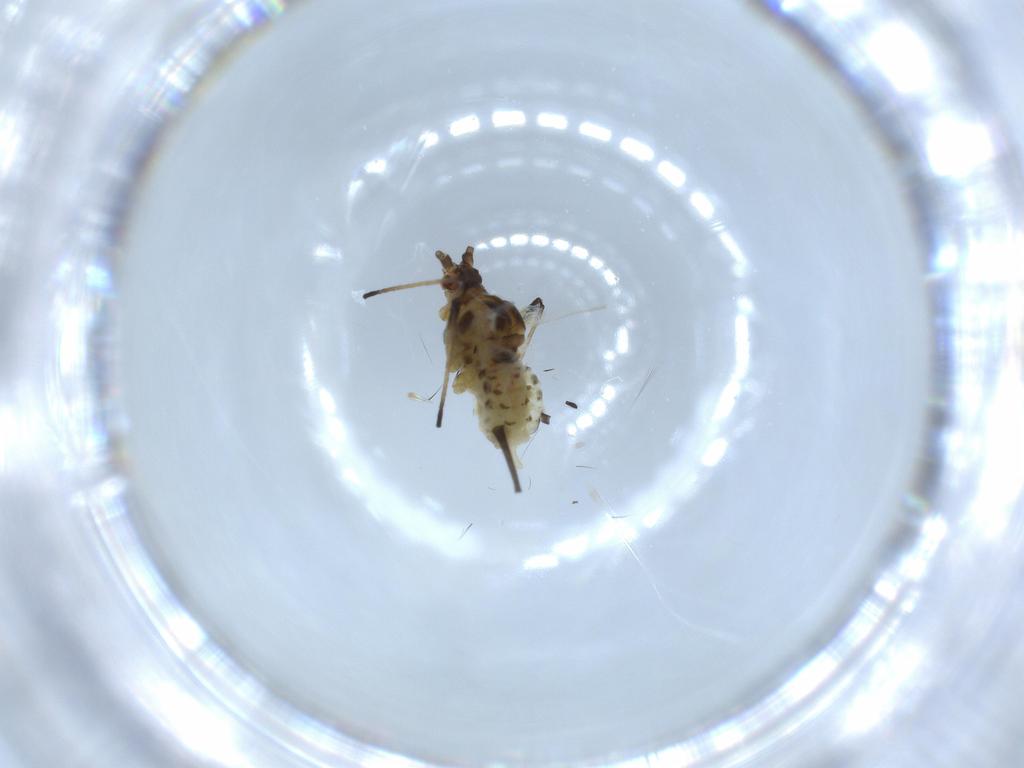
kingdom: Animalia
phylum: Arthropoda
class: Insecta
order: Hemiptera
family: Aphididae
